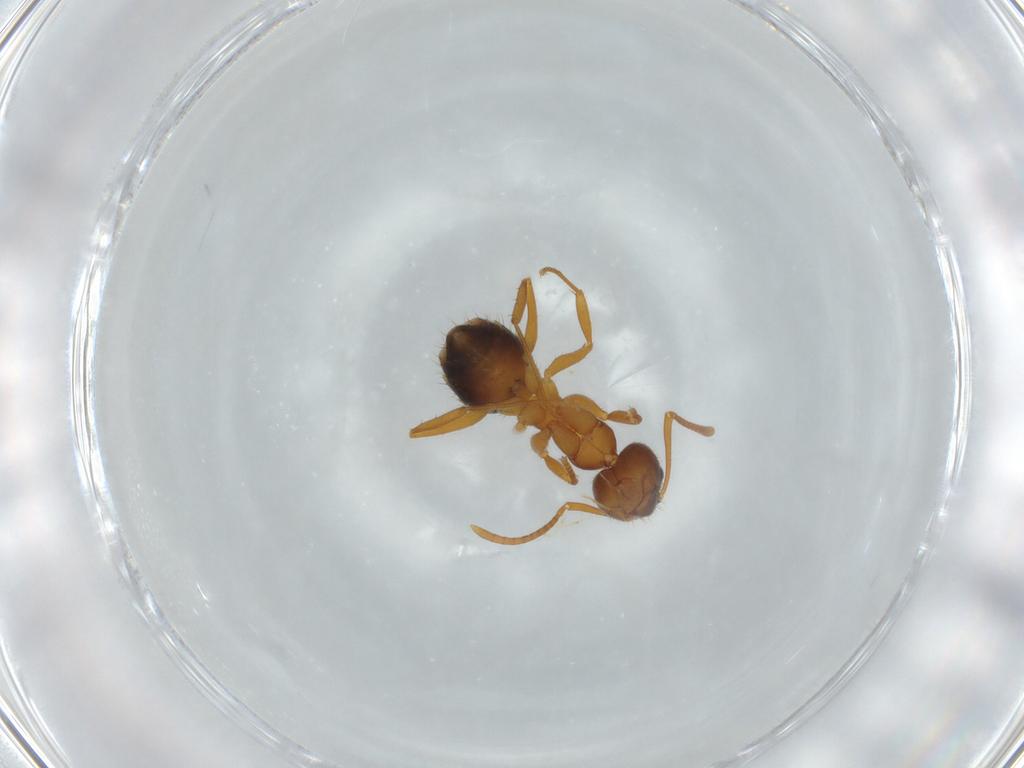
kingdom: Animalia
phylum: Arthropoda
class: Insecta
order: Hymenoptera
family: Formicidae
